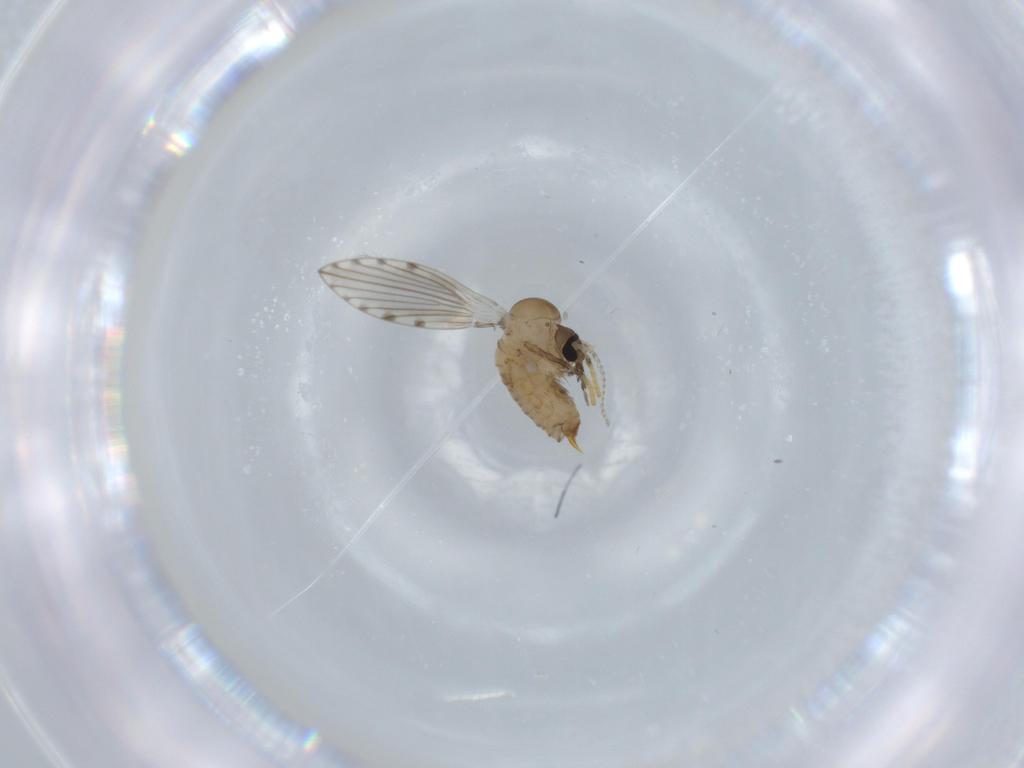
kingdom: Animalia
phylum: Arthropoda
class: Insecta
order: Diptera
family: Psychodidae
